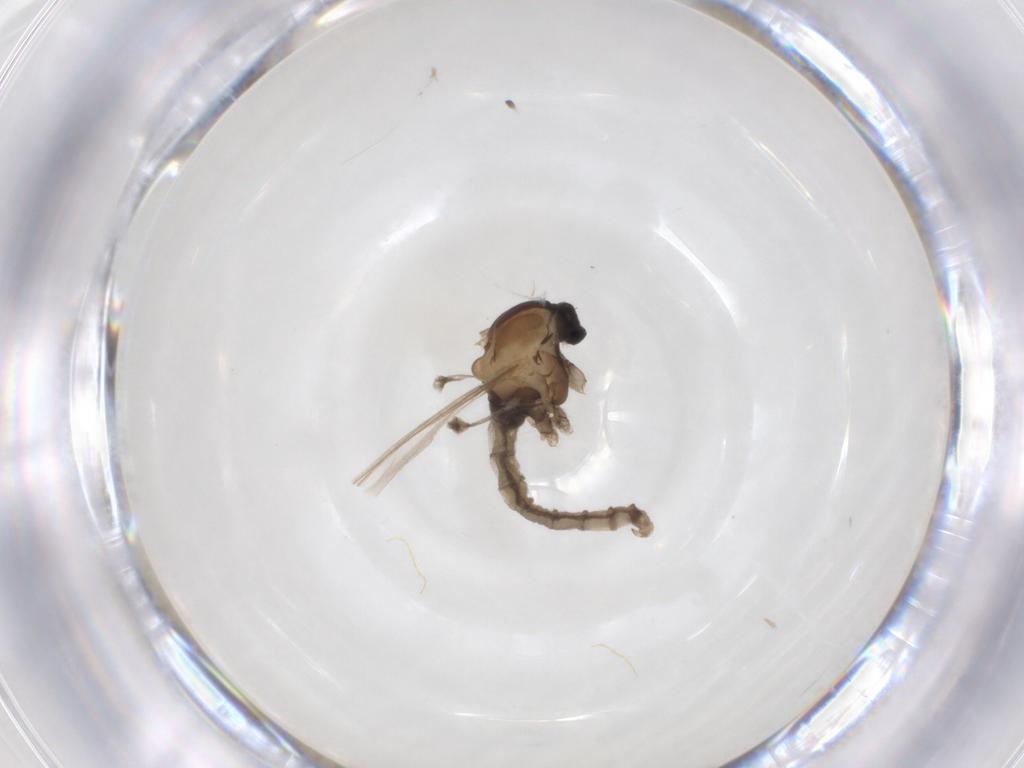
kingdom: Animalia
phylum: Arthropoda
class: Insecta
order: Diptera
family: Cecidomyiidae
